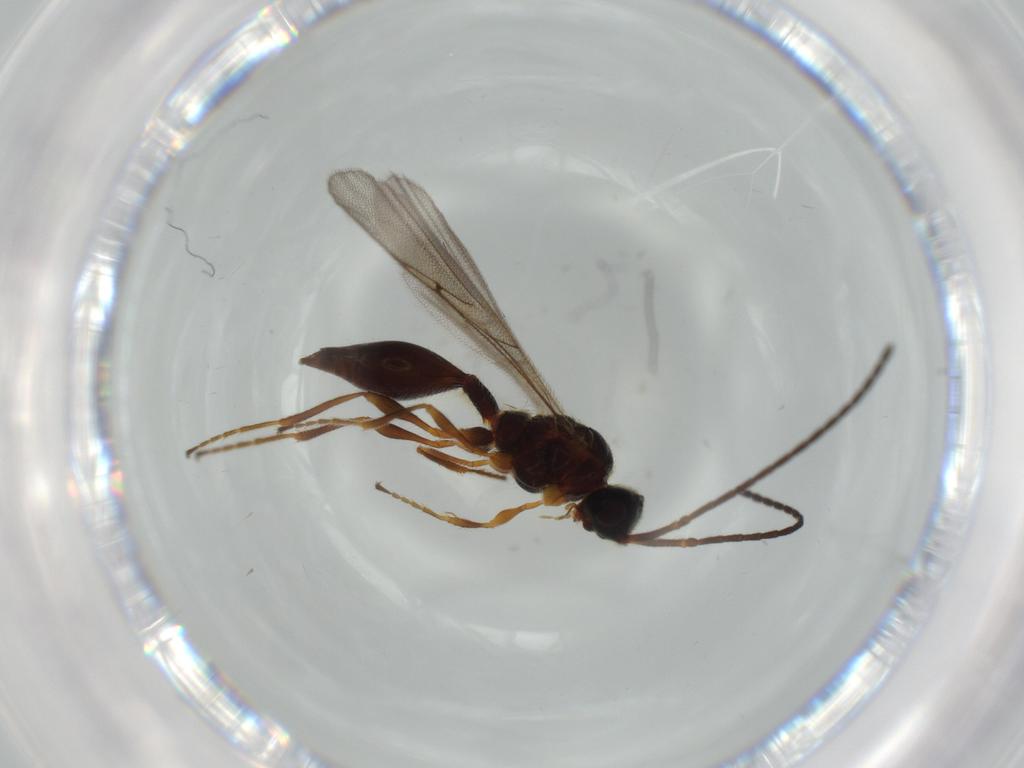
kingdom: Animalia
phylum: Arthropoda
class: Insecta
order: Hymenoptera
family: Diapriidae
